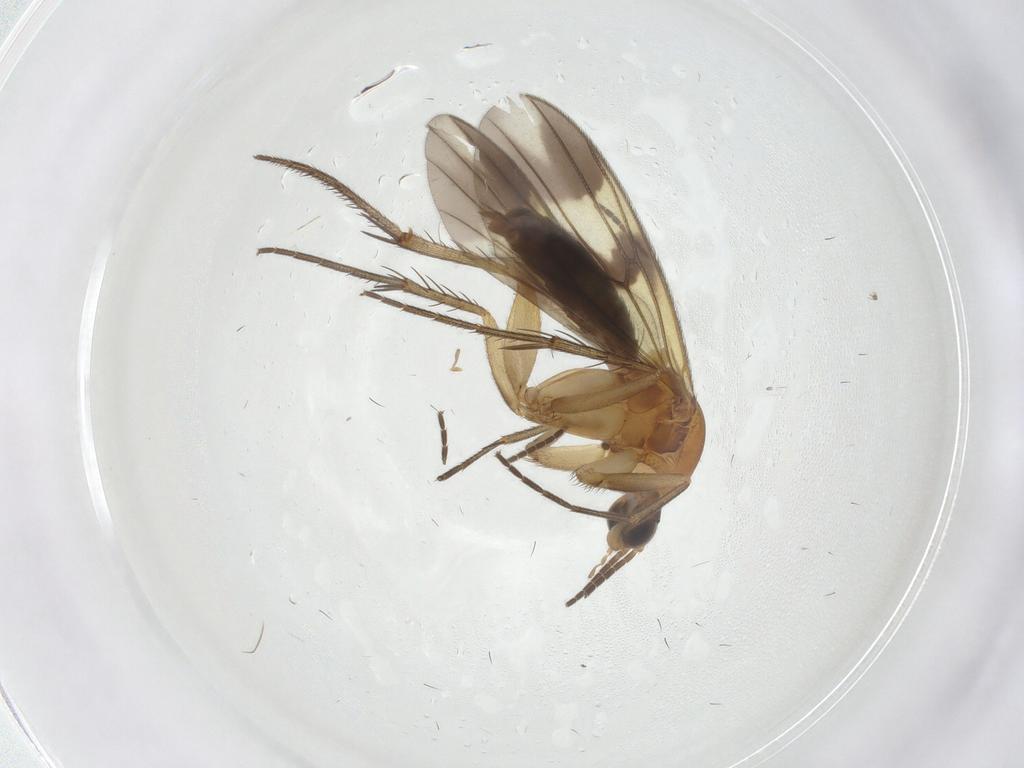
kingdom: Animalia
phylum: Arthropoda
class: Insecta
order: Diptera
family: Mycetophilidae
